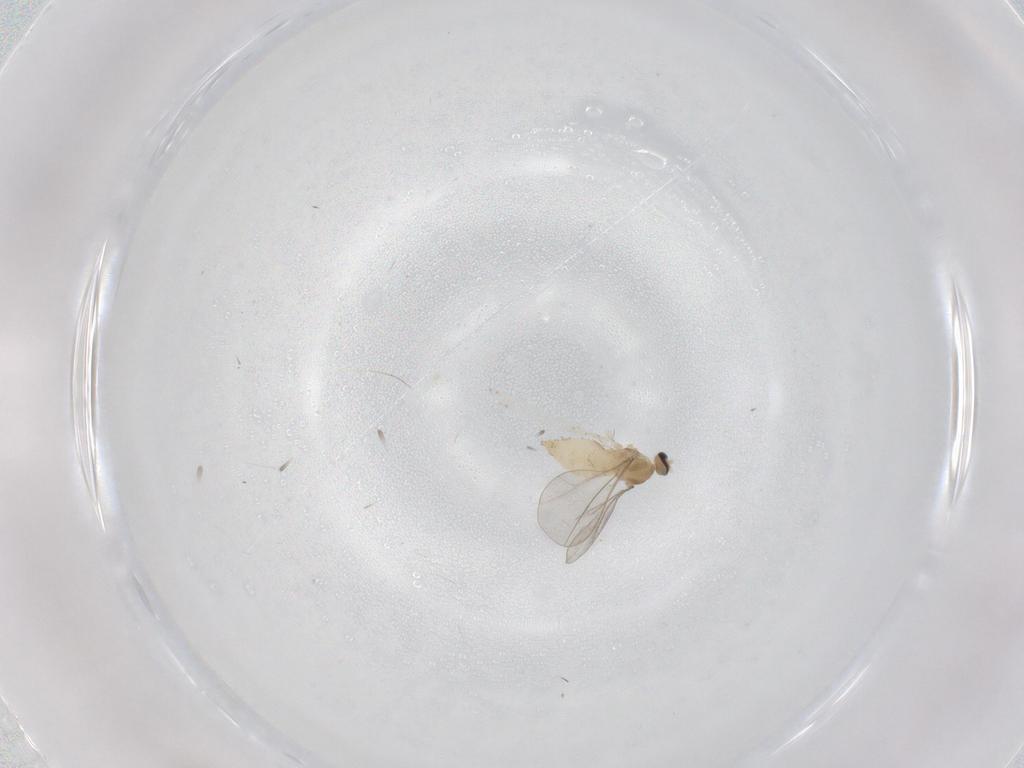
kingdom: Animalia
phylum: Arthropoda
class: Insecta
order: Diptera
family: Cecidomyiidae
